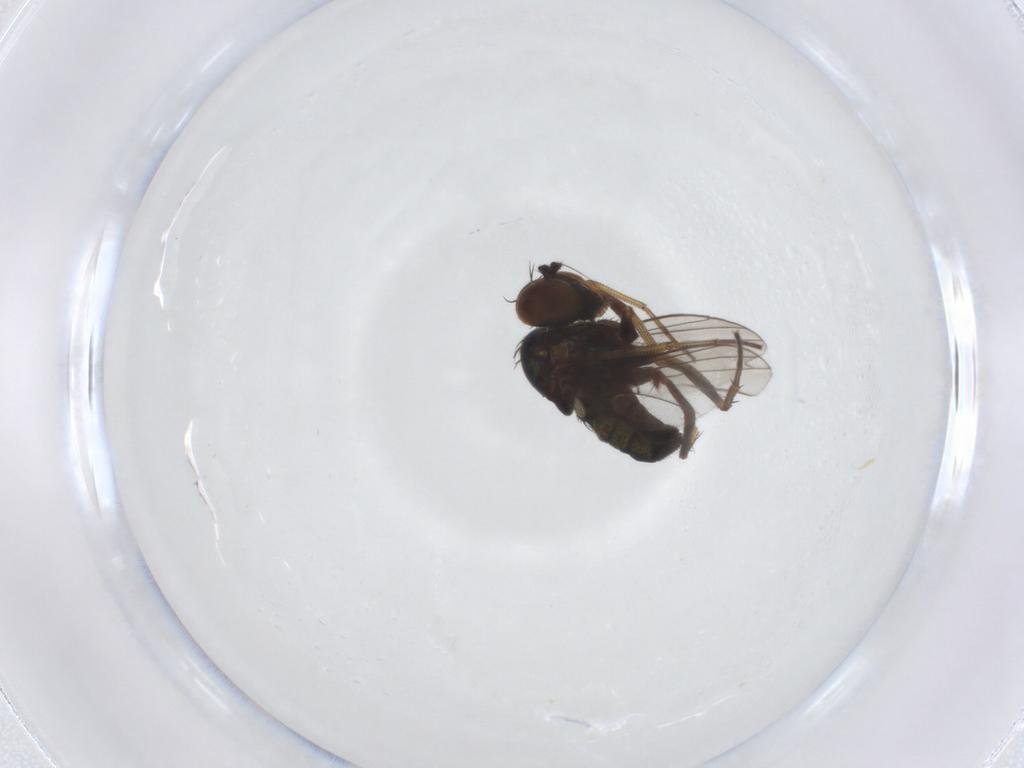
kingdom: Animalia
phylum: Arthropoda
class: Insecta
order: Diptera
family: Dolichopodidae
